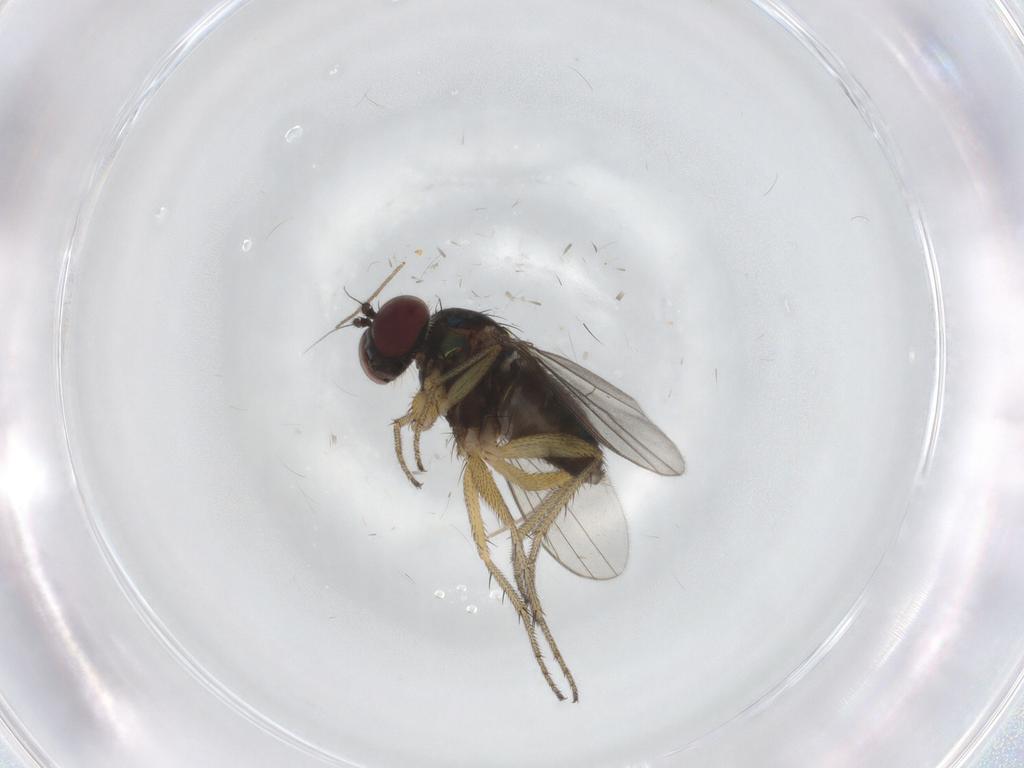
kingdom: Animalia
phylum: Arthropoda
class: Insecta
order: Diptera
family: Dolichopodidae
